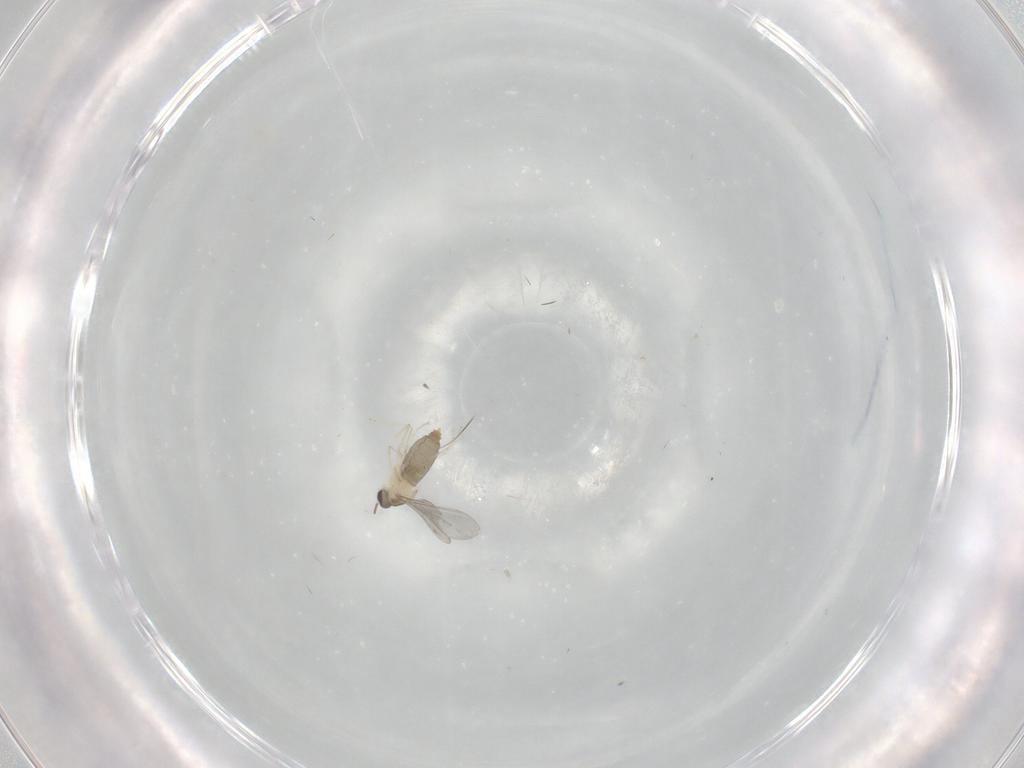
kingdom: Animalia
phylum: Arthropoda
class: Insecta
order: Diptera
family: Cecidomyiidae
